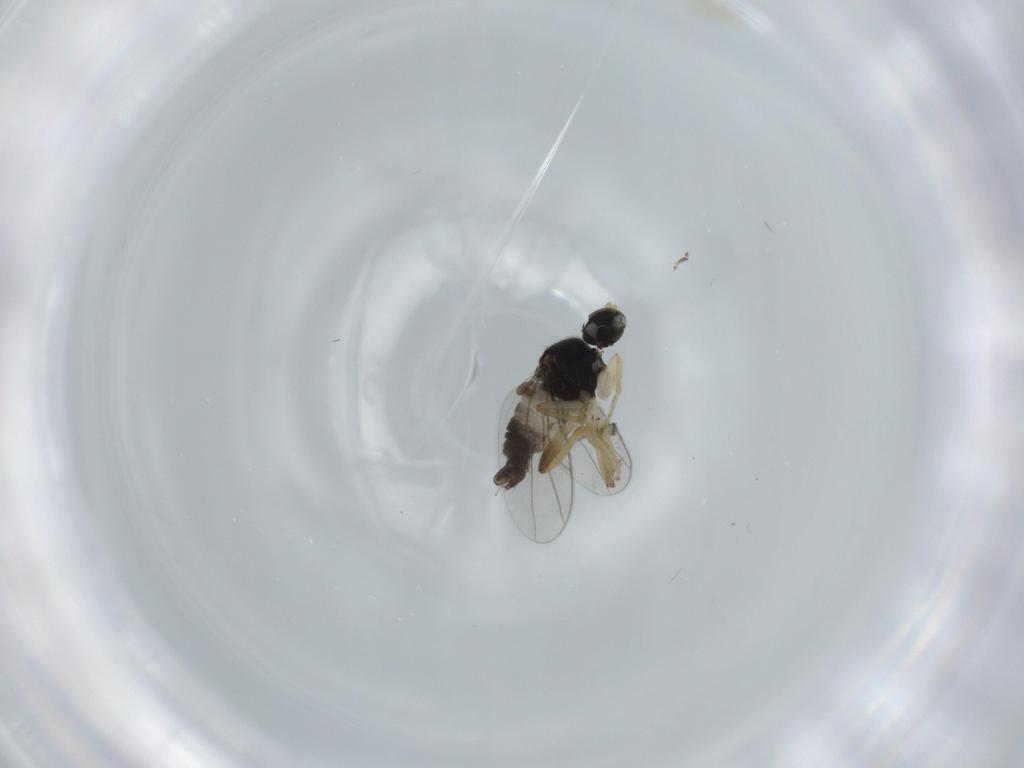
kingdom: Animalia
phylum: Arthropoda
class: Insecta
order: Diptera
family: Hybotidae
